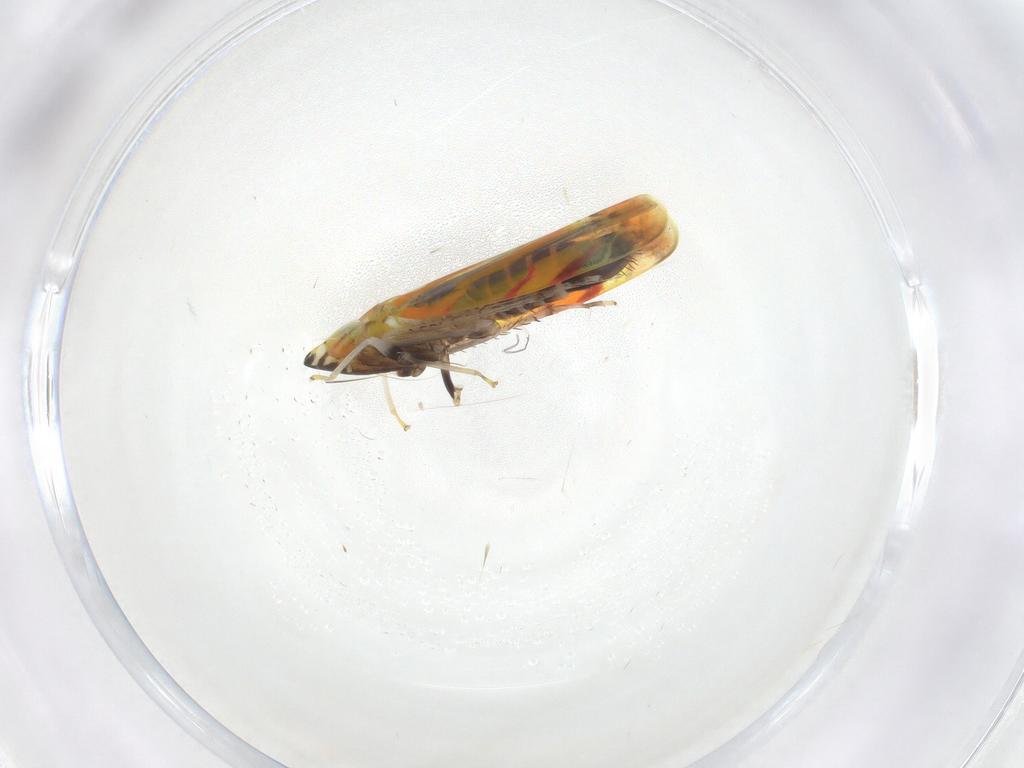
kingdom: Animalia
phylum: Arthropoda
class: Insecta
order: Hemiptera
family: Cicadellidae
